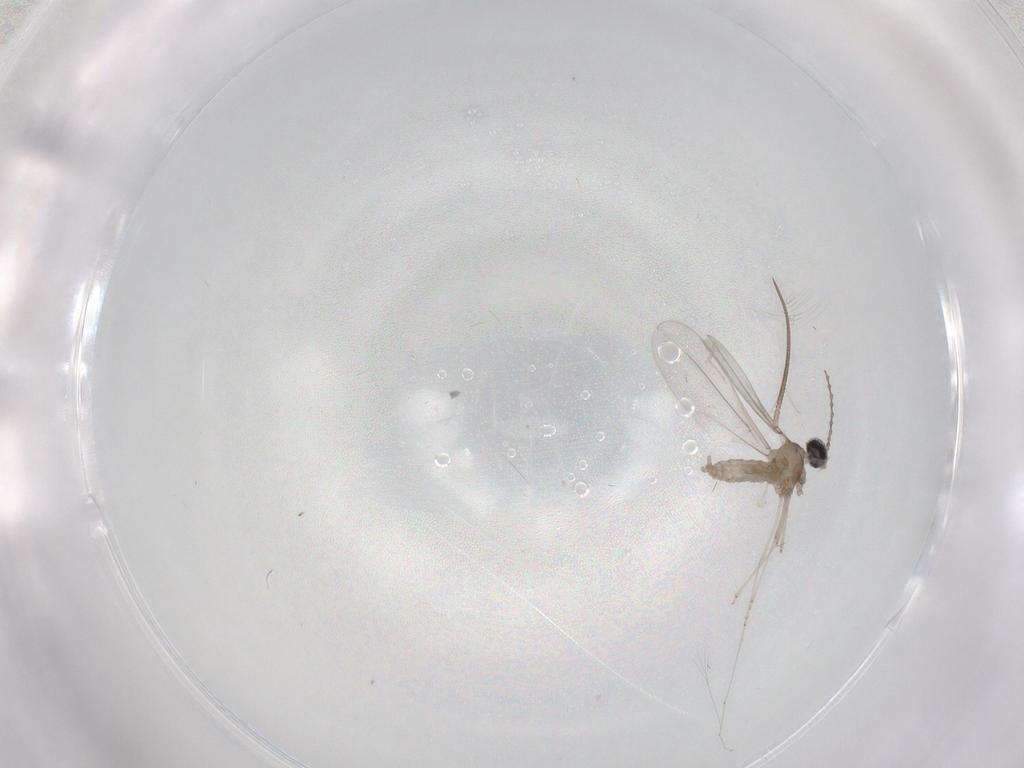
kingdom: Animalia
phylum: Arthropoda
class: Insecta
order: Diptera
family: Cecidomyiidae
